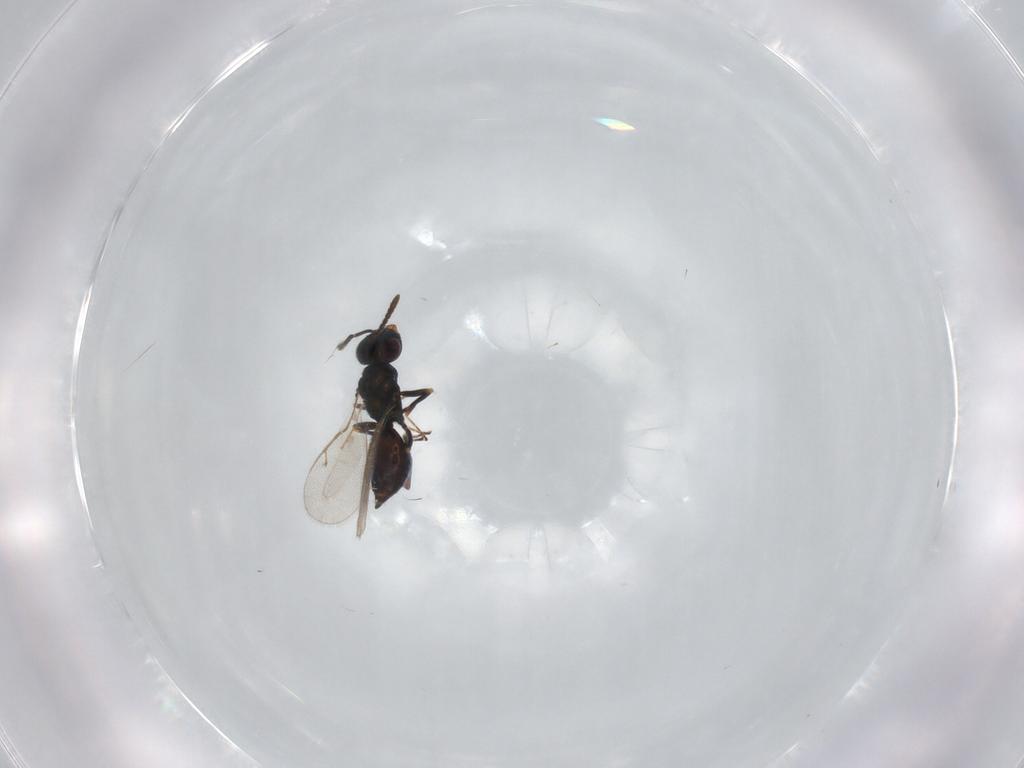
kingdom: Animalia
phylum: Arthropoda
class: Insecta
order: Hymenoptera
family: Pteromalidae
